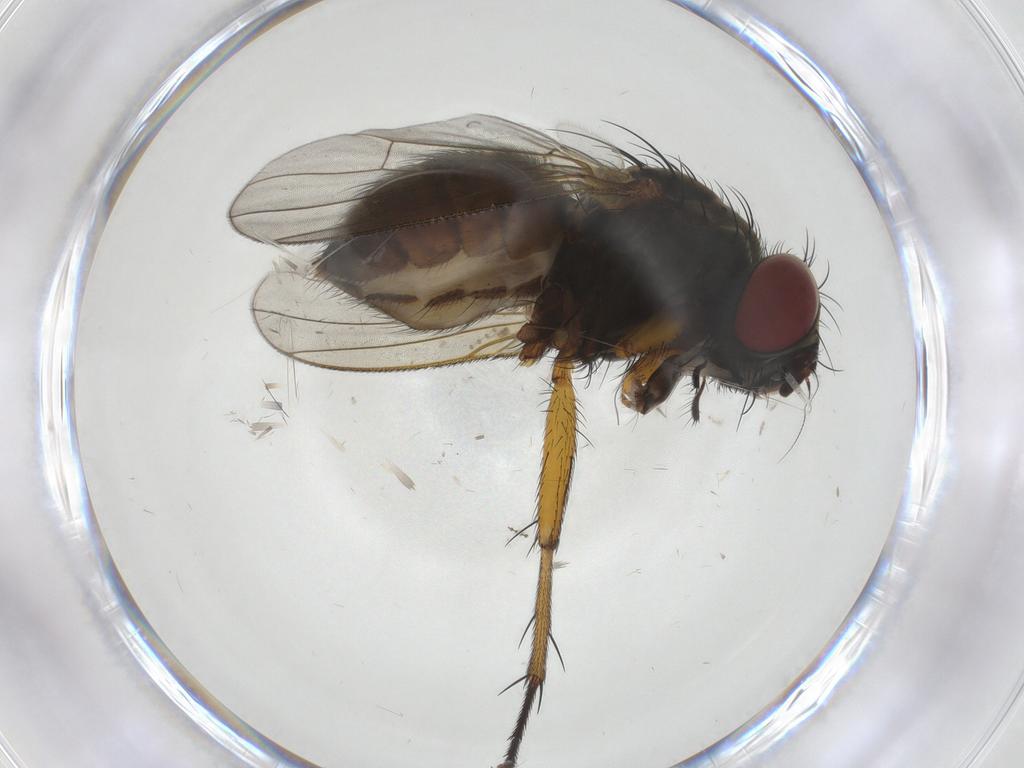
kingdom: Animalia
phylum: Arthropoda
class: Insecta
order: Diptera
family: Muscidae
